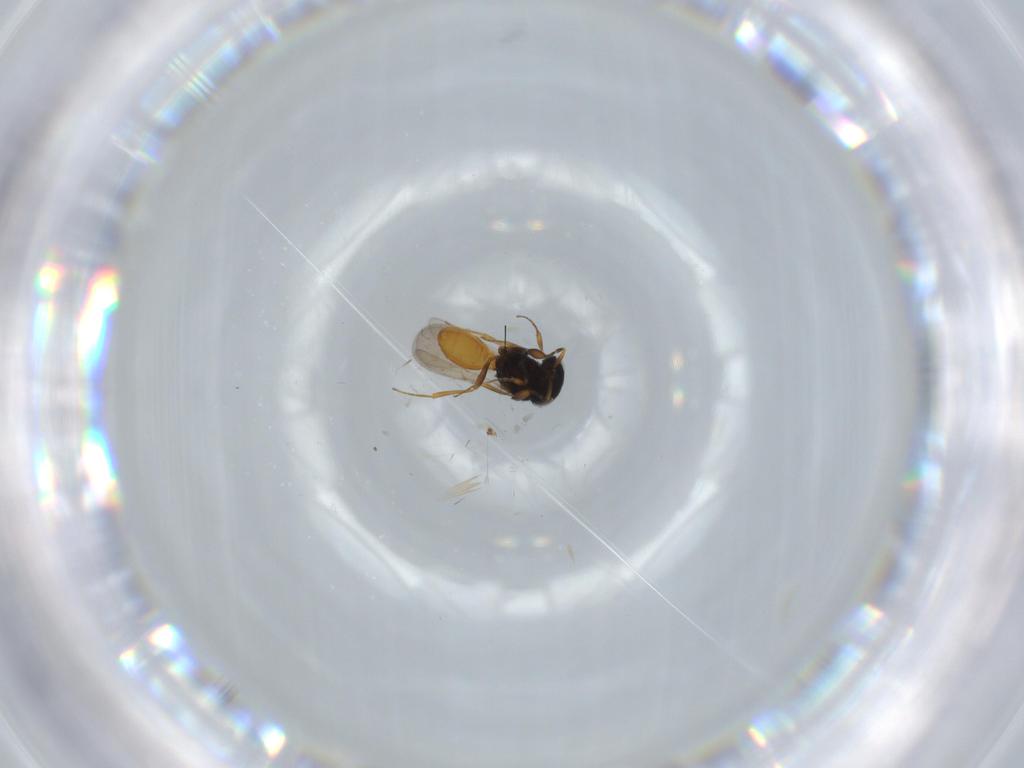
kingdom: Animalia
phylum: Arthropoda
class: Insecta
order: Hymenoptera
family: Scelionidae
